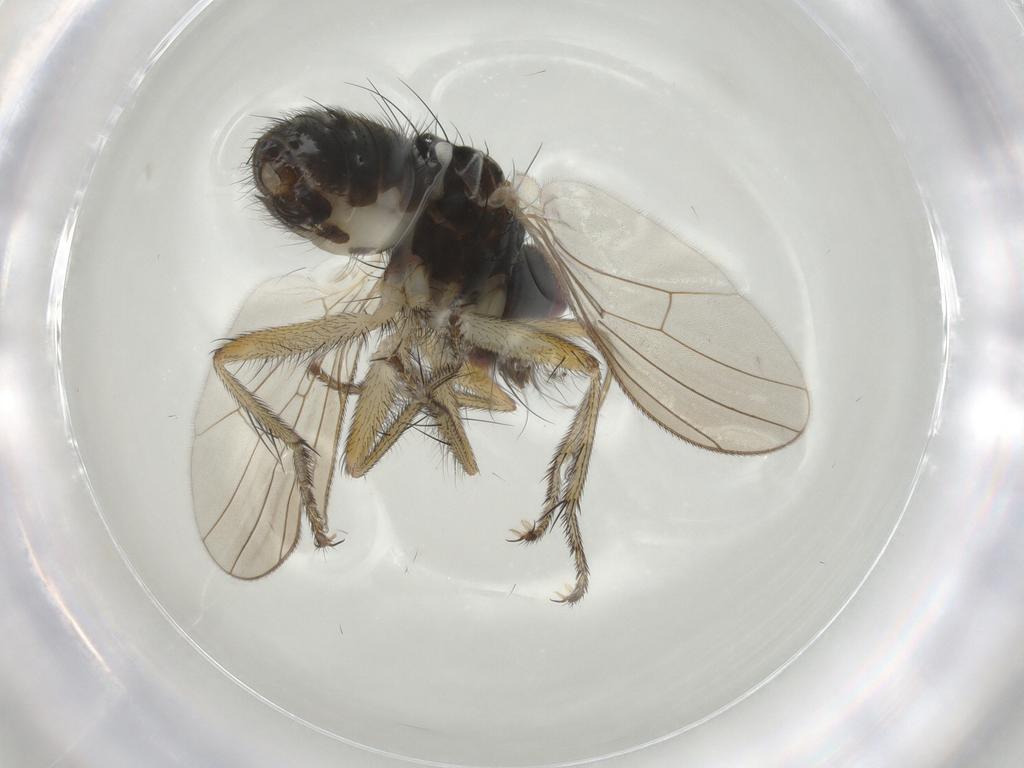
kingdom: Animalia
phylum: Arthropoda
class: Insecta
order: Diptera
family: Muscidae
